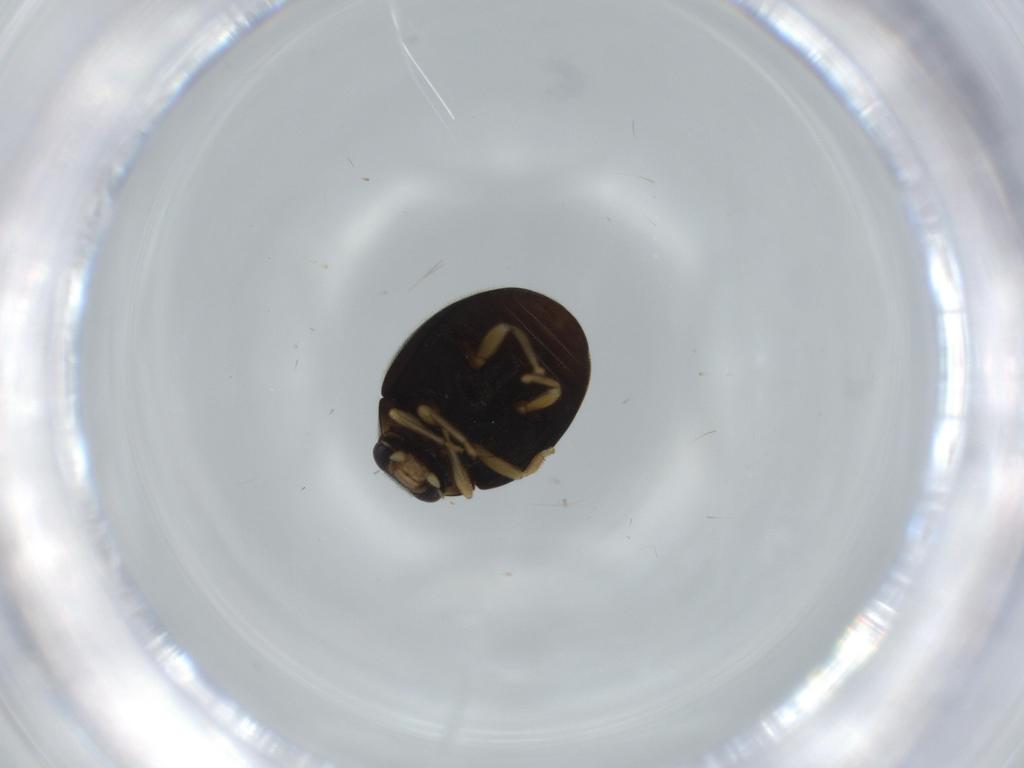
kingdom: Animalia
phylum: Arthropoda
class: Insecta
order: Coleoptera
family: Coccinellidae
